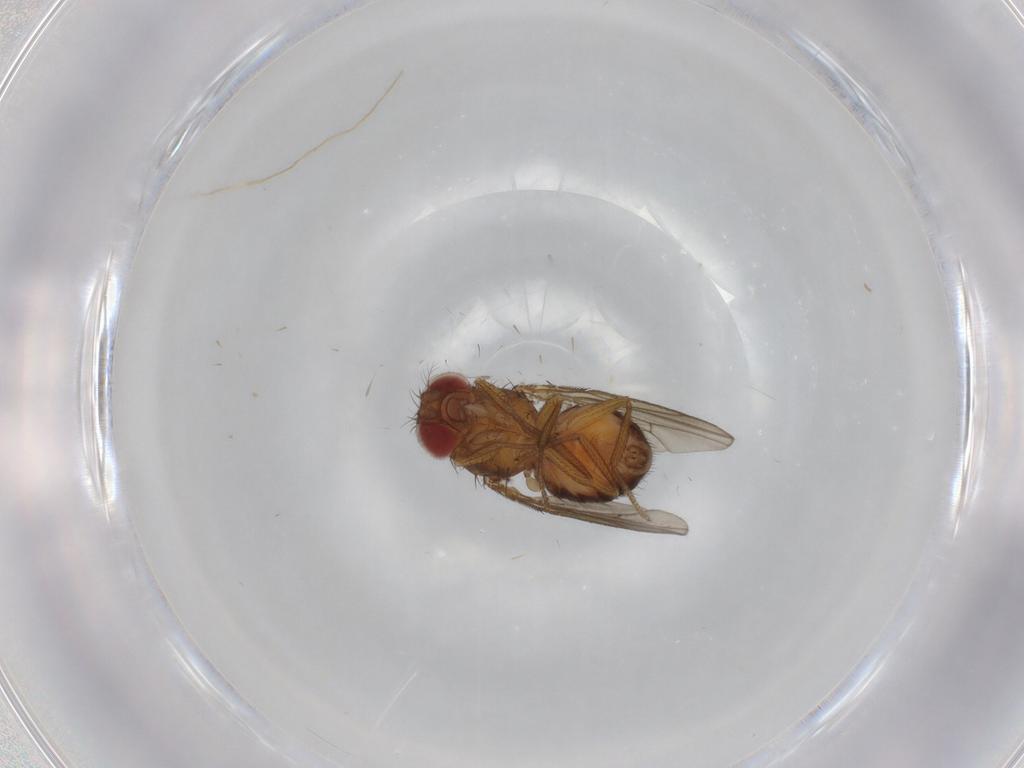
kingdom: Animalia
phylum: Arthropoda
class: Insecta
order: Diptera
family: Drosophilidae
